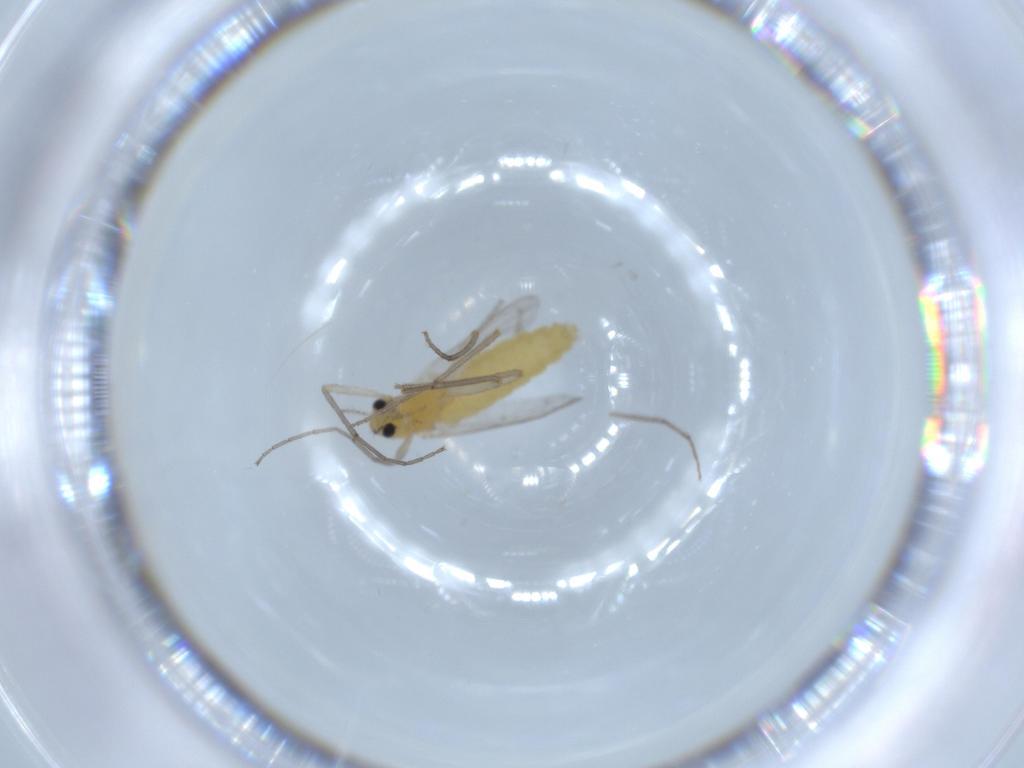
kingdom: Animalia
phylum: Arthropoda
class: Insecta
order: Diptera
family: Chironomidae
